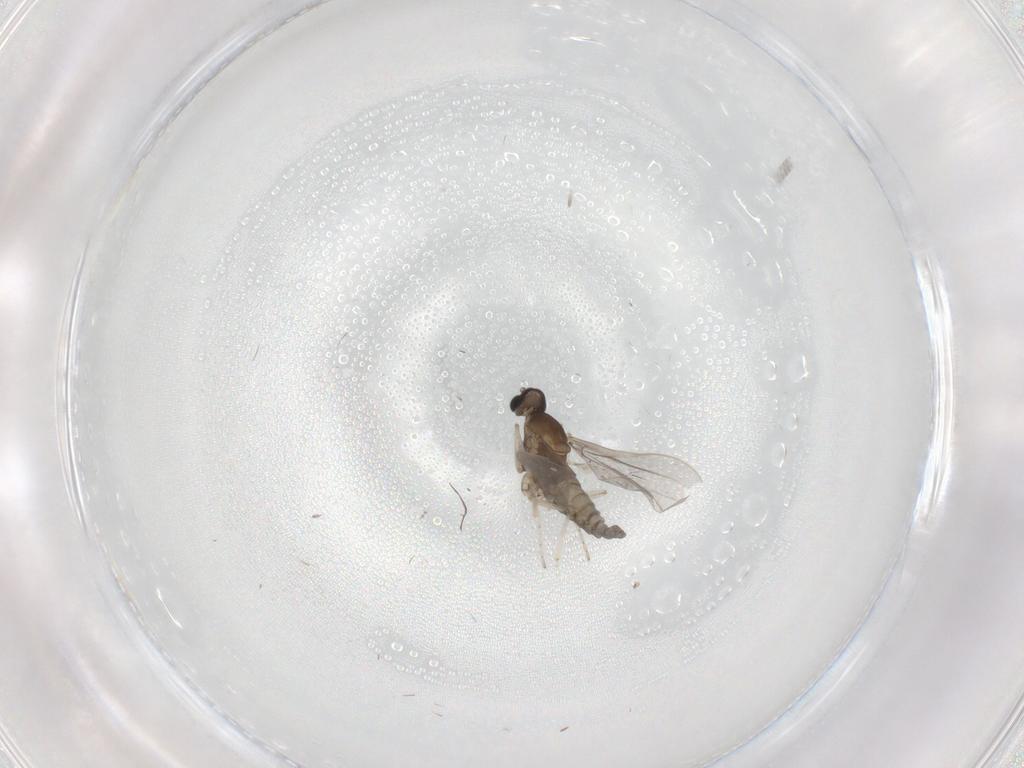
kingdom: Animalia
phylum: Arthropoda
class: Insecta
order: Diptera
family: Cecidomyiidae
